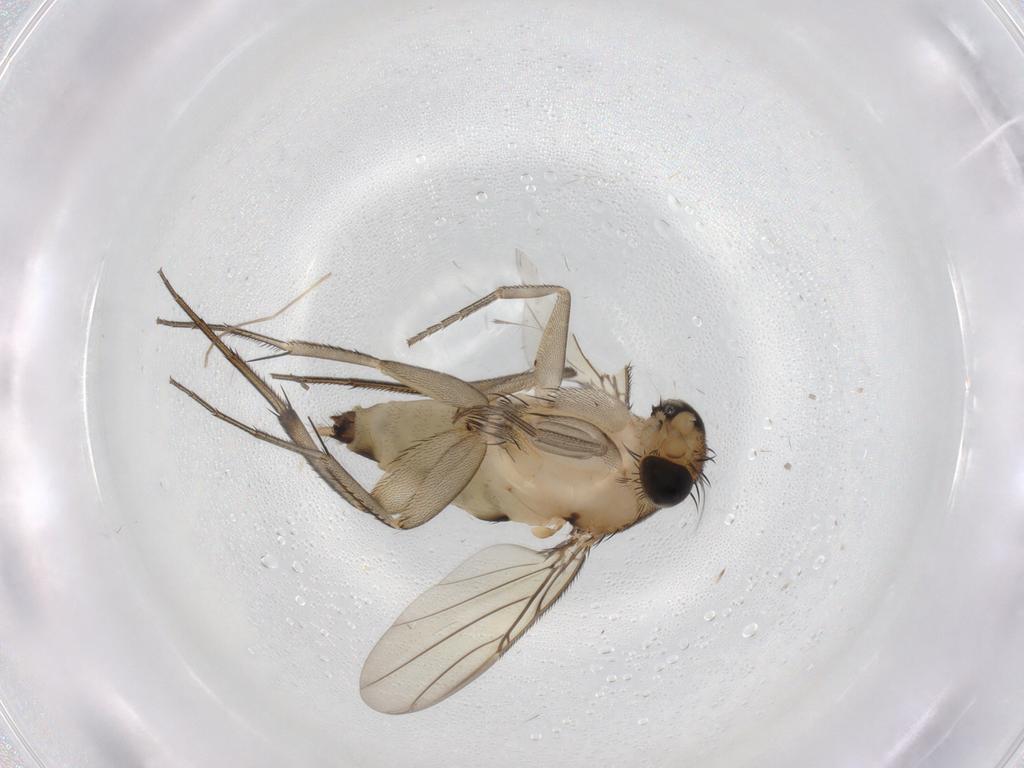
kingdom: Animalia
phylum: Arthropoda
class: Insecta
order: Diptera
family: Phoridae
